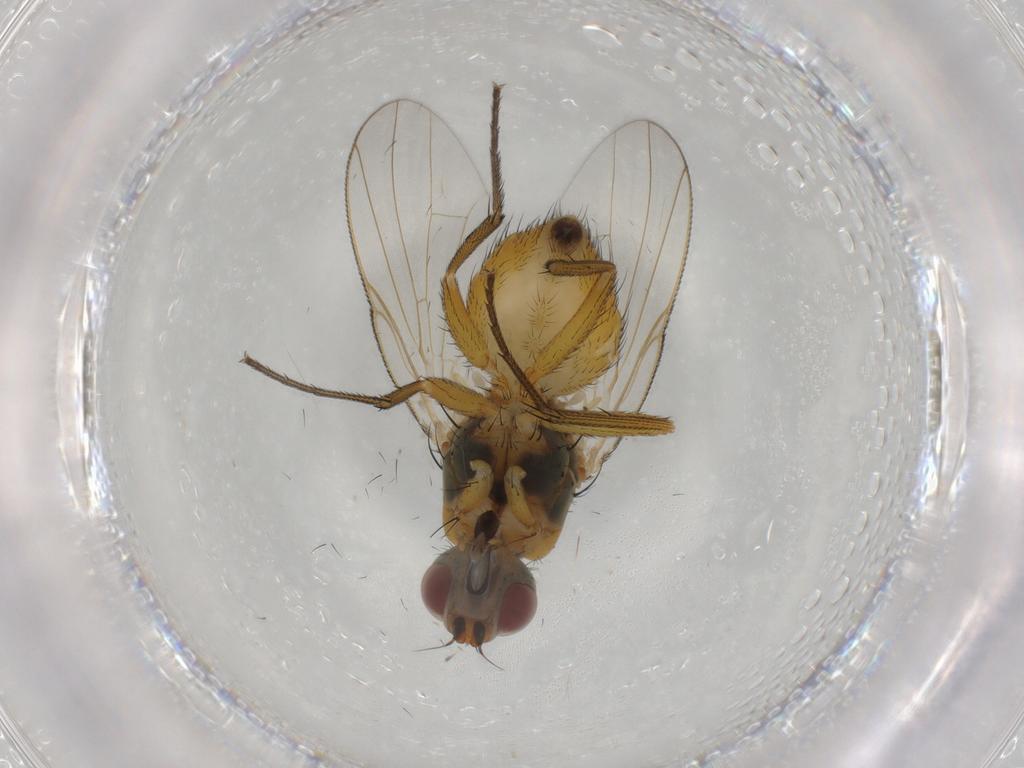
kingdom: Animalia
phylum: Arthropoda
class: Insecta
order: Diptera
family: Muscidae
